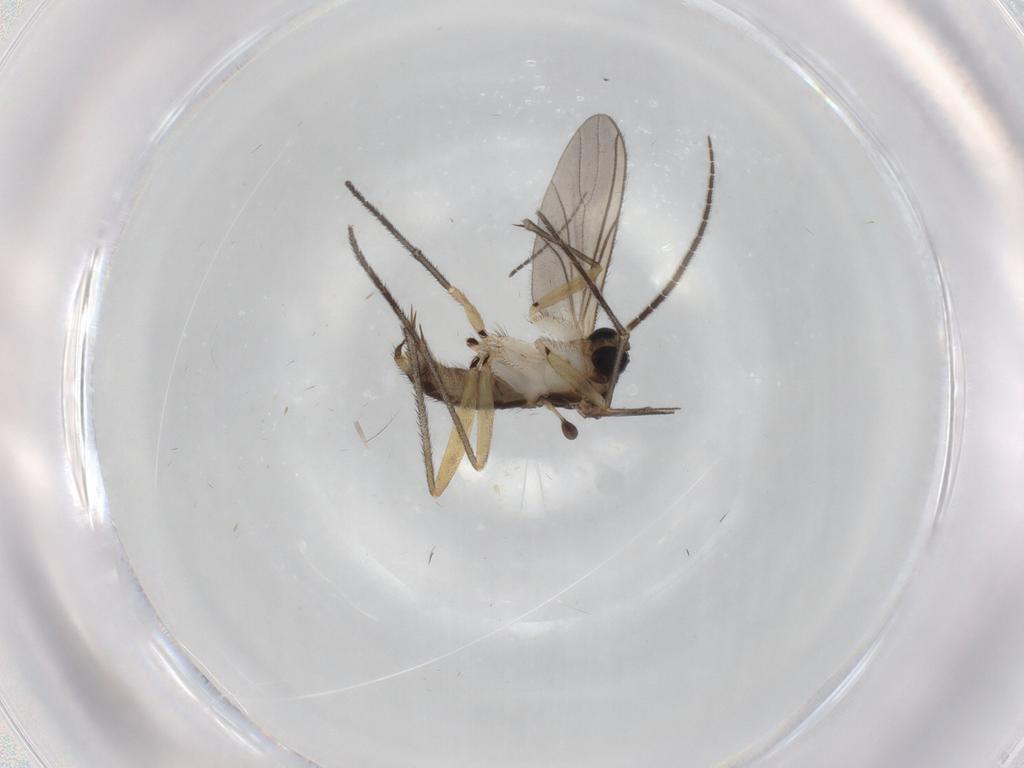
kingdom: Animalia
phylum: Arthropoda
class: Insecta
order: Diptera
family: Sciaridae
